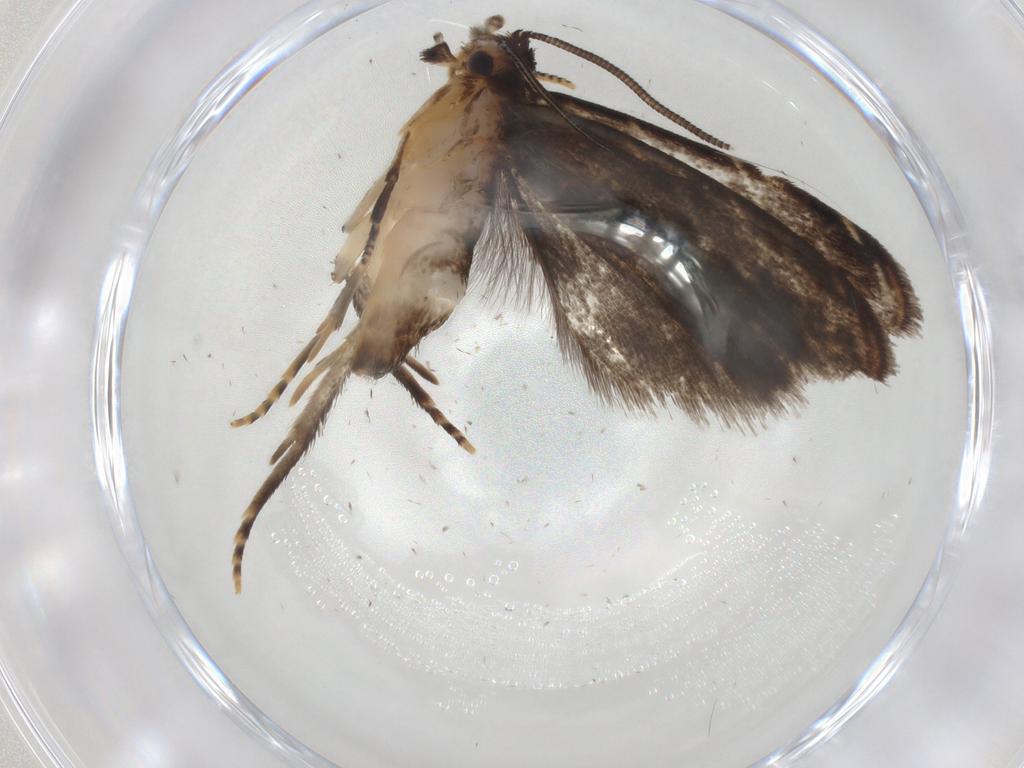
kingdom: Animalia
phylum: Arthropoda
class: Insecta
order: Lepidoptera
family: Dryadaulidae
